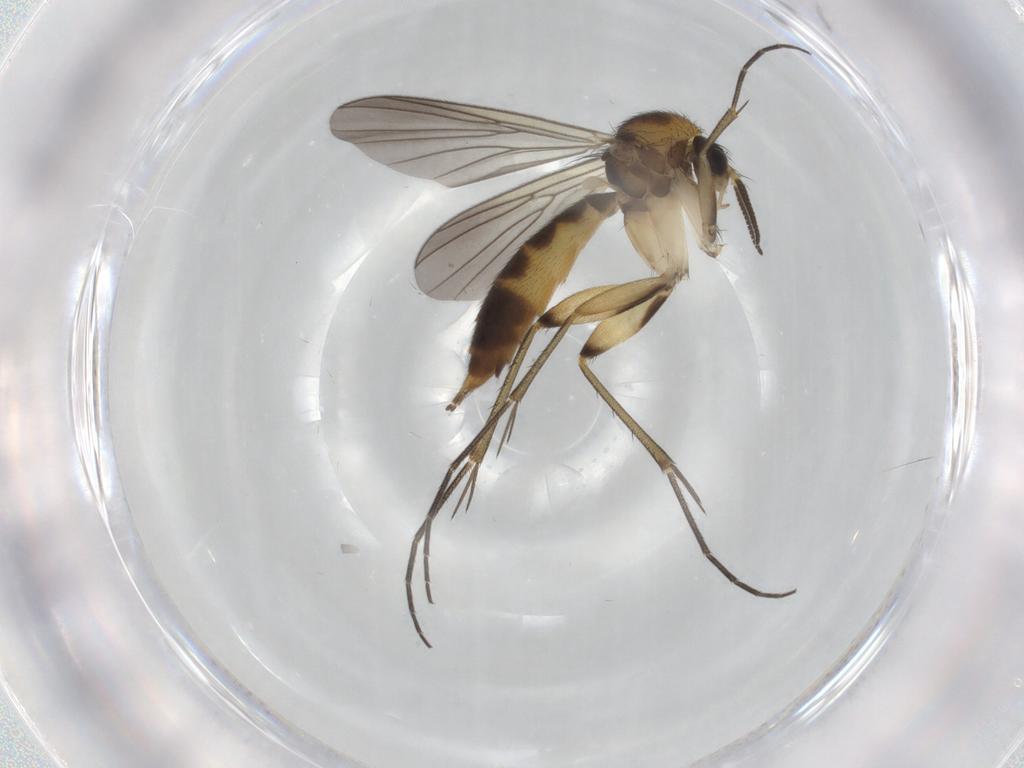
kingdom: Animalia
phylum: Arthropoda
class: Insecta
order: Diptera
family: Mycetophilidae
